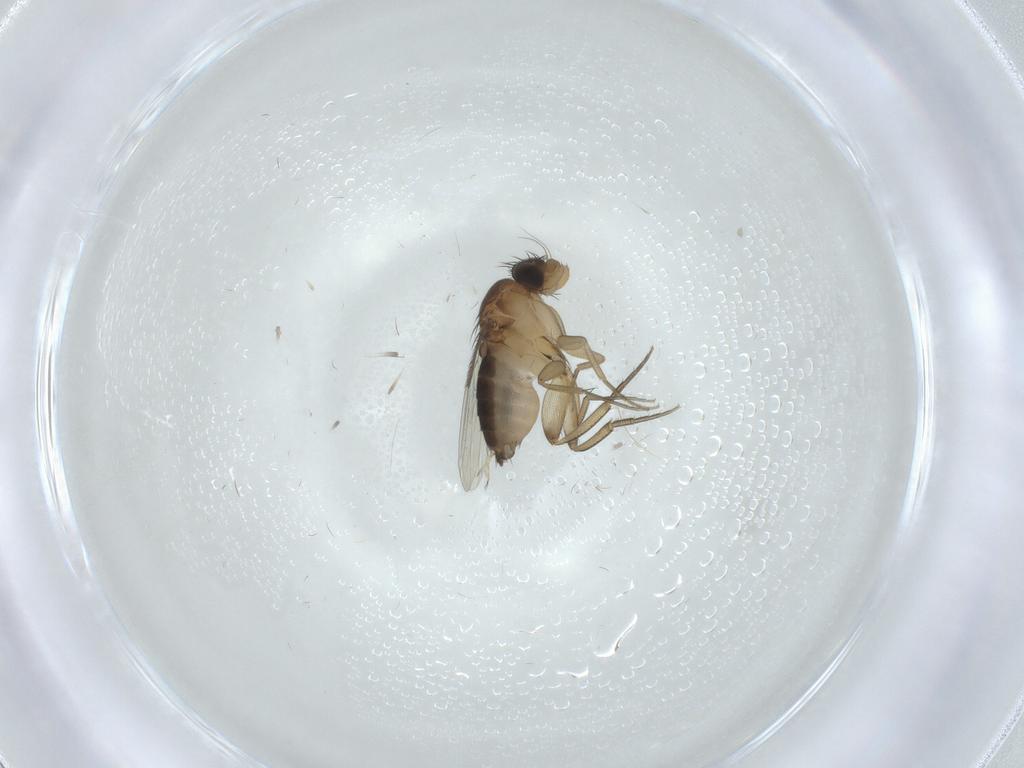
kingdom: Animalia
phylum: Arthropoda
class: Insecta
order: Diptera
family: Phoridae
